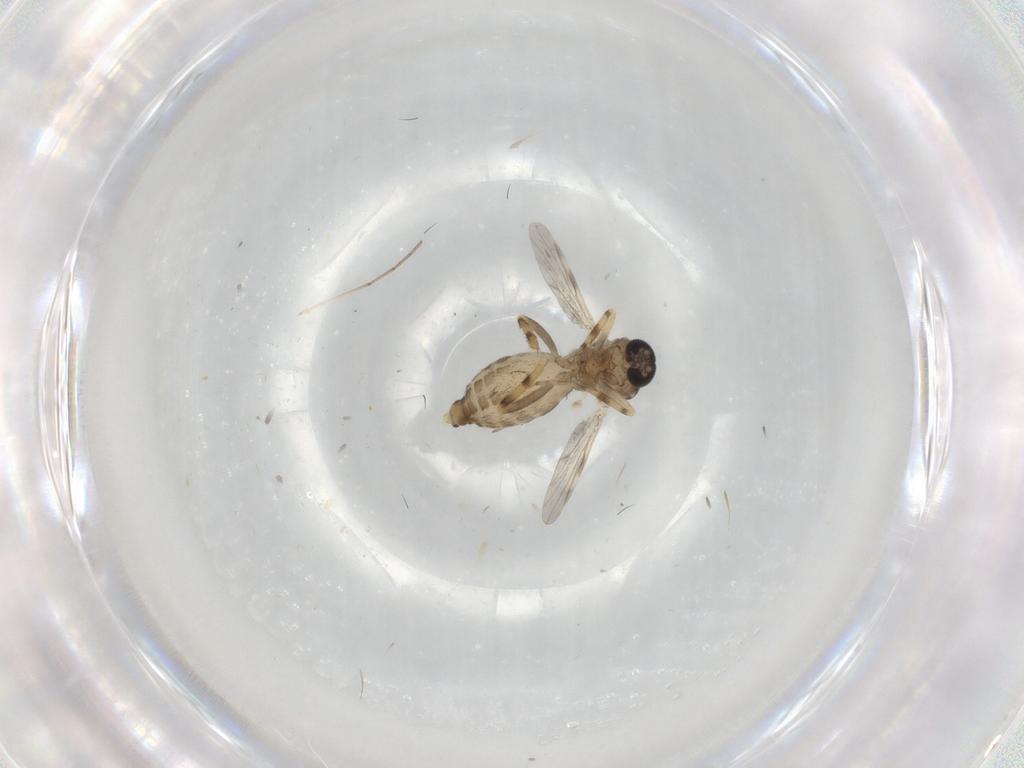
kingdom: Animalia
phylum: Arthropoda
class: Insecta
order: Diptera
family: Ceratopogonidae
